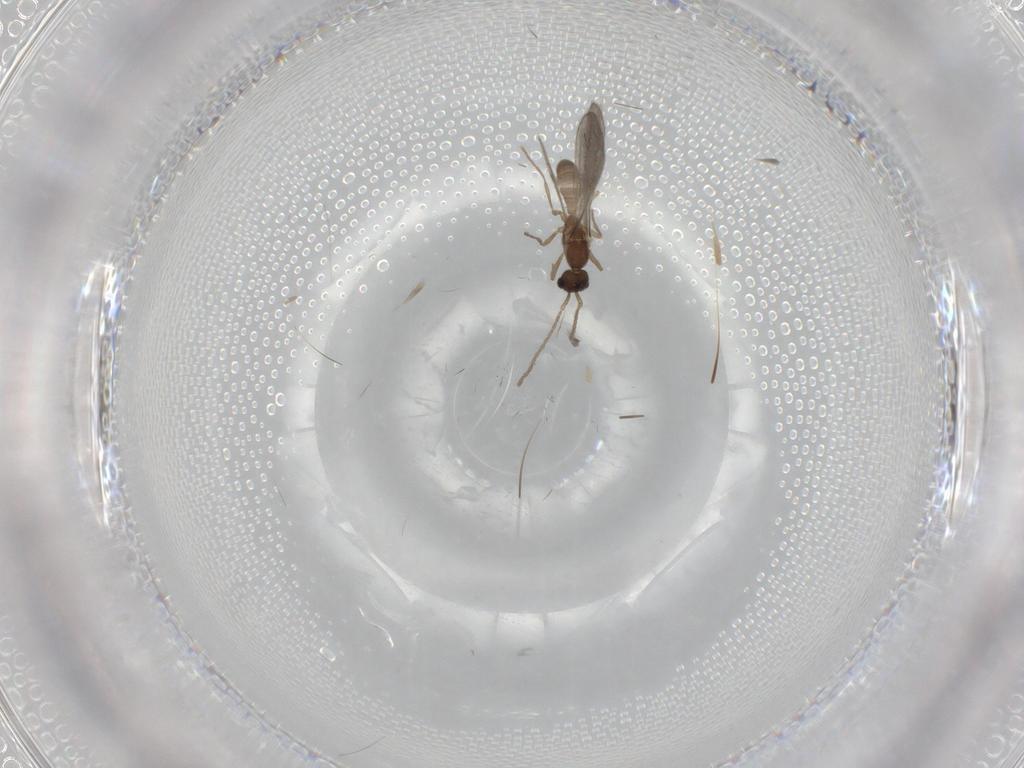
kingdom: Animalia
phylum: Arthropoda
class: Insecta
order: Hymenoptera
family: Formicidae
